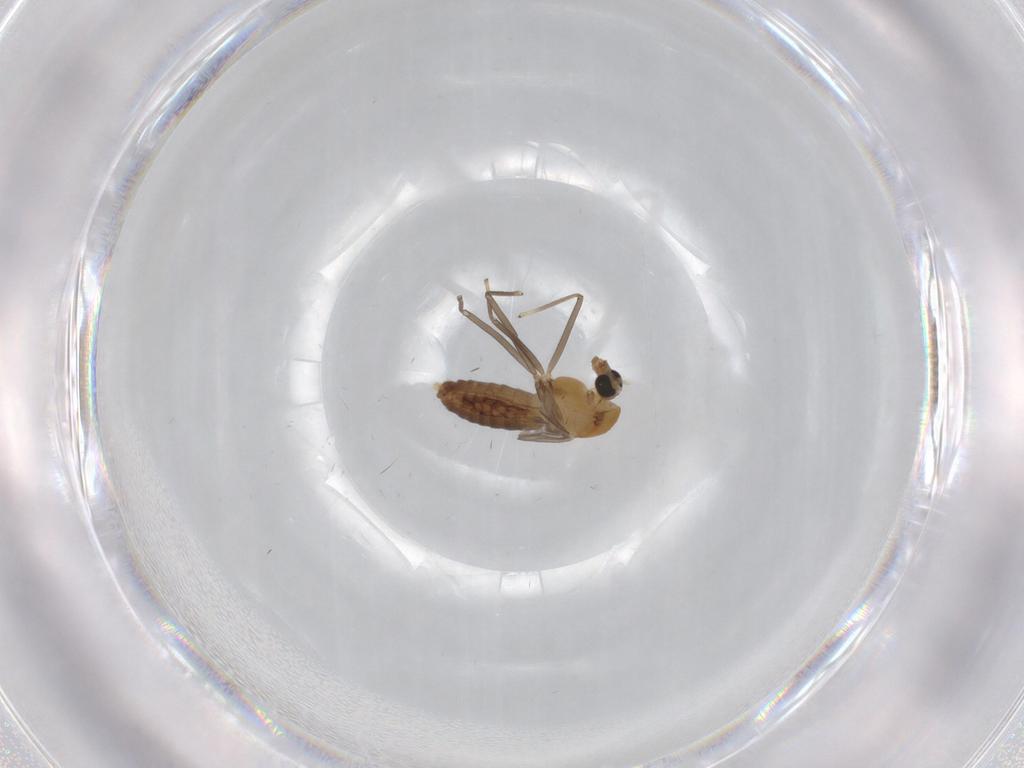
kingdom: Animalia
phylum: Arthropoda
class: Insecta
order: Diptera
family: Chironomidae
